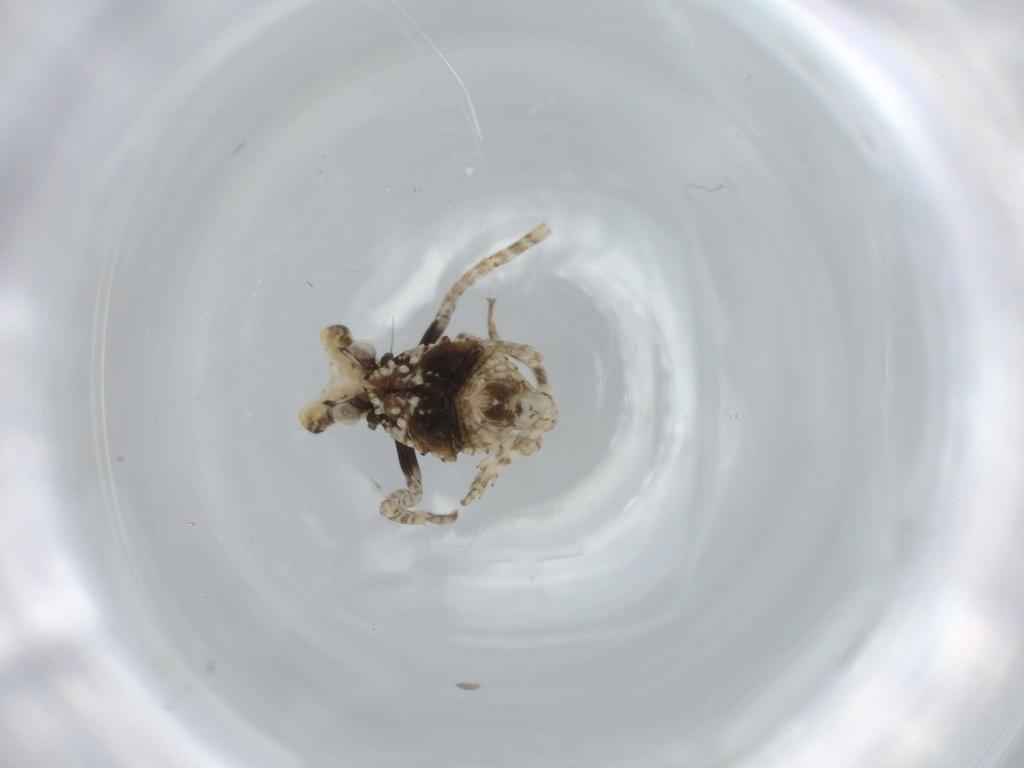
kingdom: Animalia
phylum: Arthropoda
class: Insecta
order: Hemiptera
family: Fulgoridae
